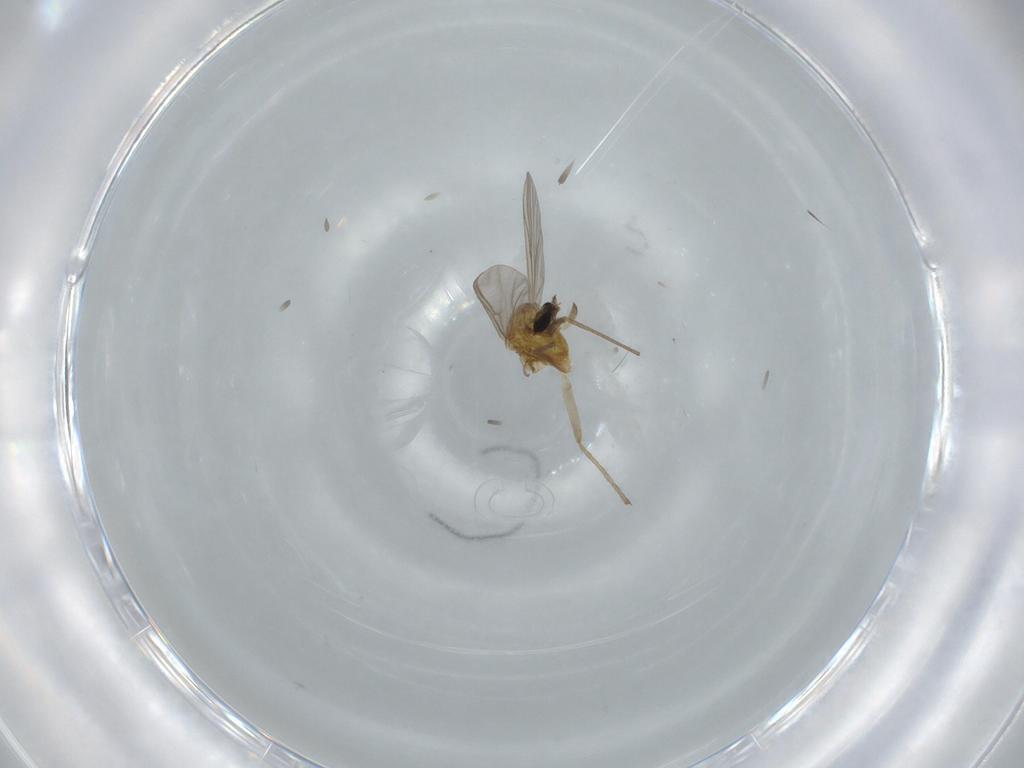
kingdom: Animalia
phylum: Arthropoda
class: Insecta
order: Diptera
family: Chironomidae
